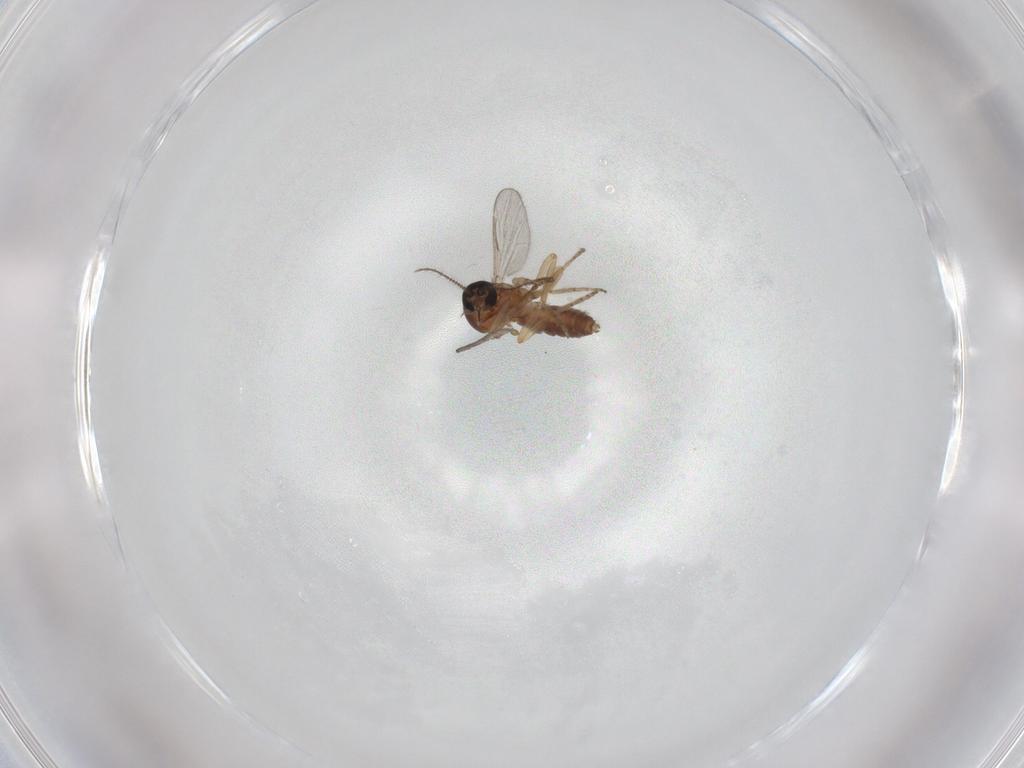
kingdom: Animalia
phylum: Arthropoda
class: Insecta
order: Diptera
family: Ceratopogonidae
